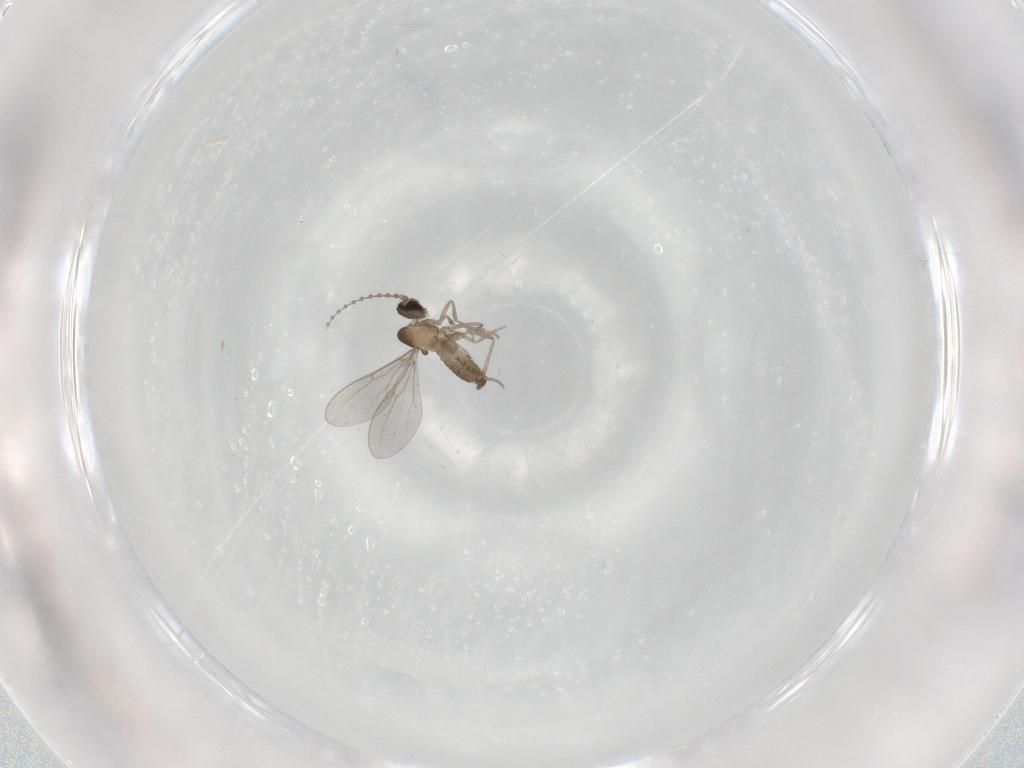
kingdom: Animalia
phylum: Arthropoda
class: Insecta
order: Diptera
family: Cecidomyiidae
